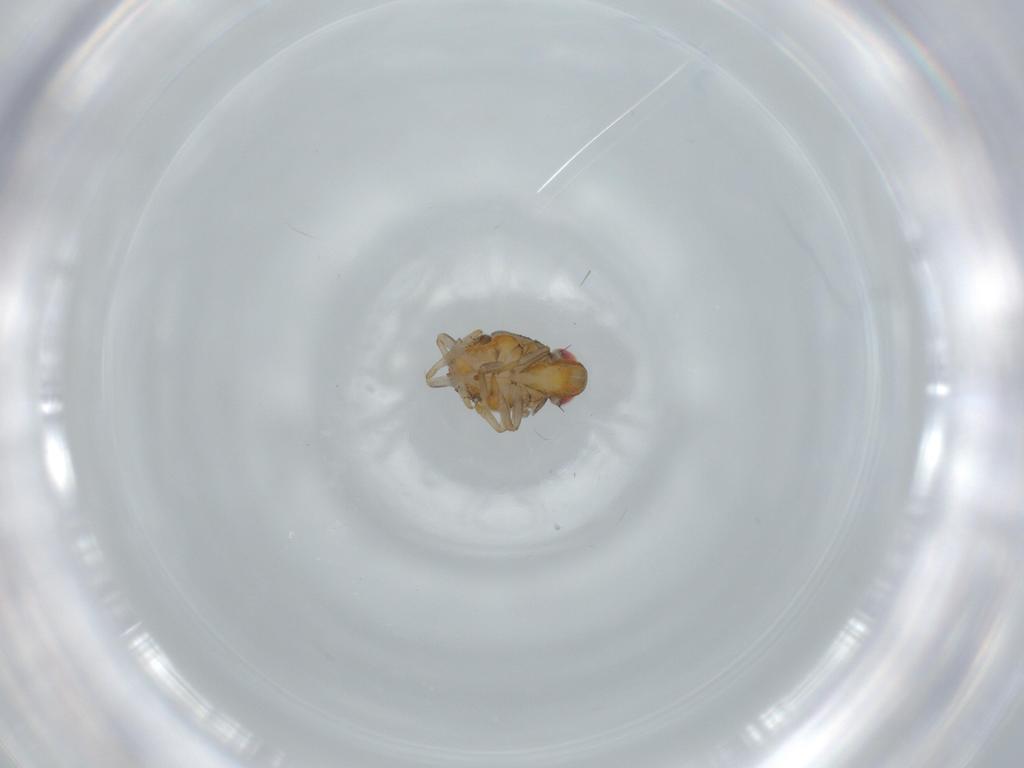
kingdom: Animalia
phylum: Arthropoda
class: Insecta
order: Hemiptera
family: Issidae
